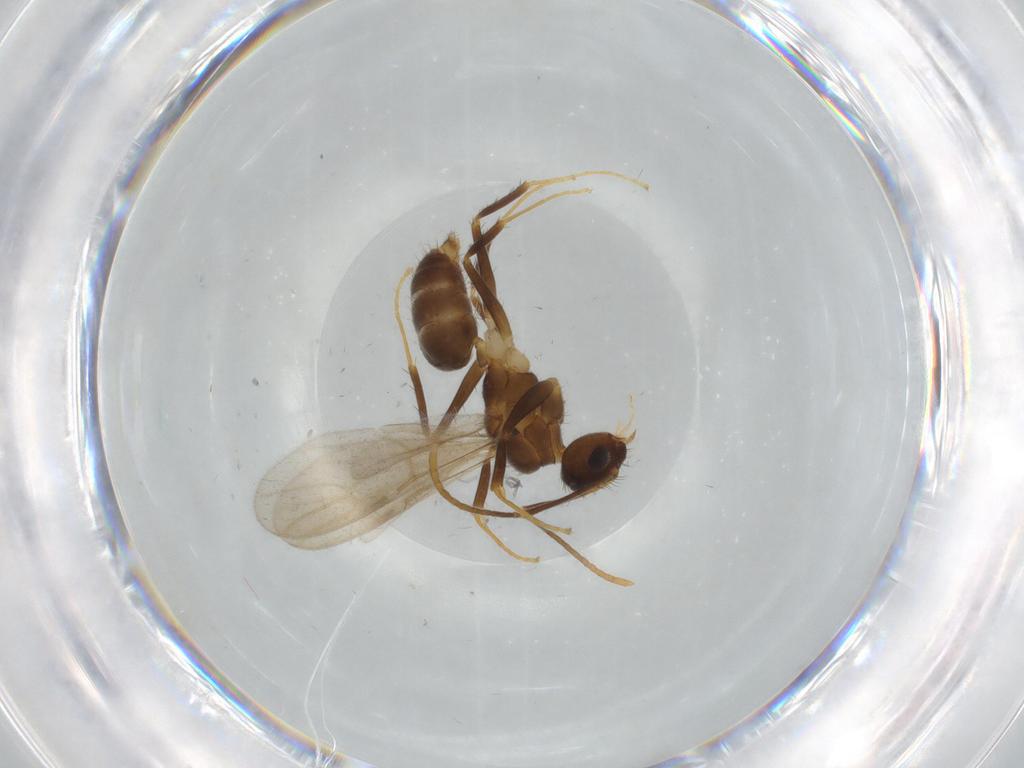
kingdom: Animalia
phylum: Arthropoda
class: Insecta
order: Hymenoptera
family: Formicidae
